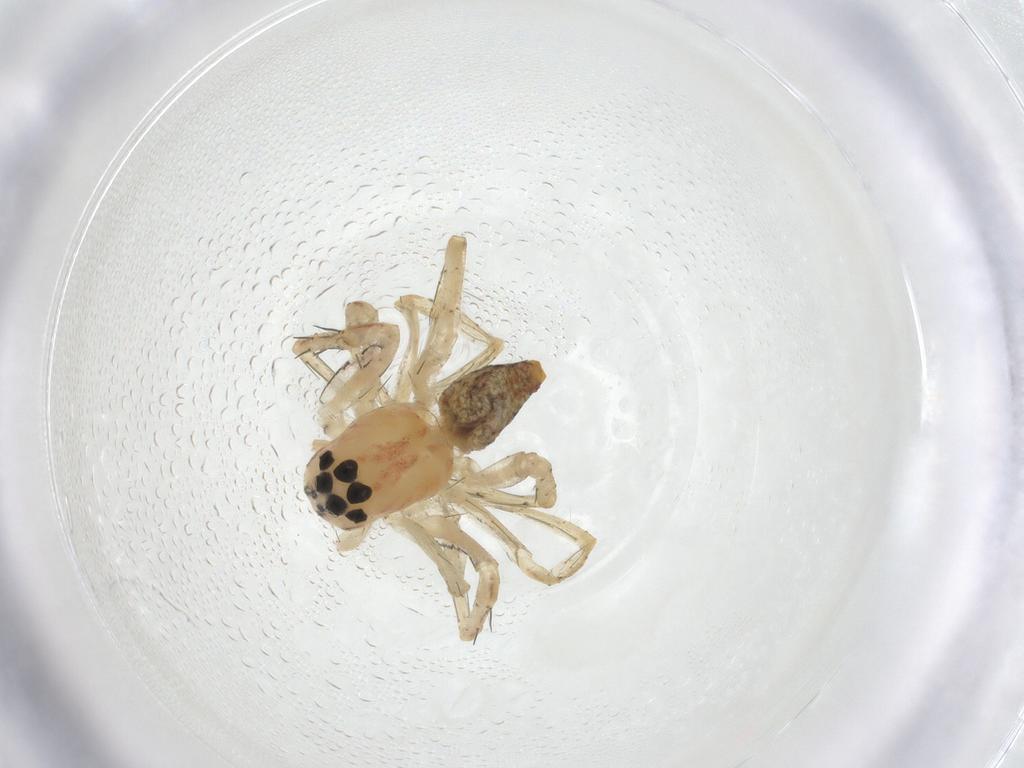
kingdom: Animalia
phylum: Arthropoda
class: Arachnida
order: Araneae
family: Oxyopidae
